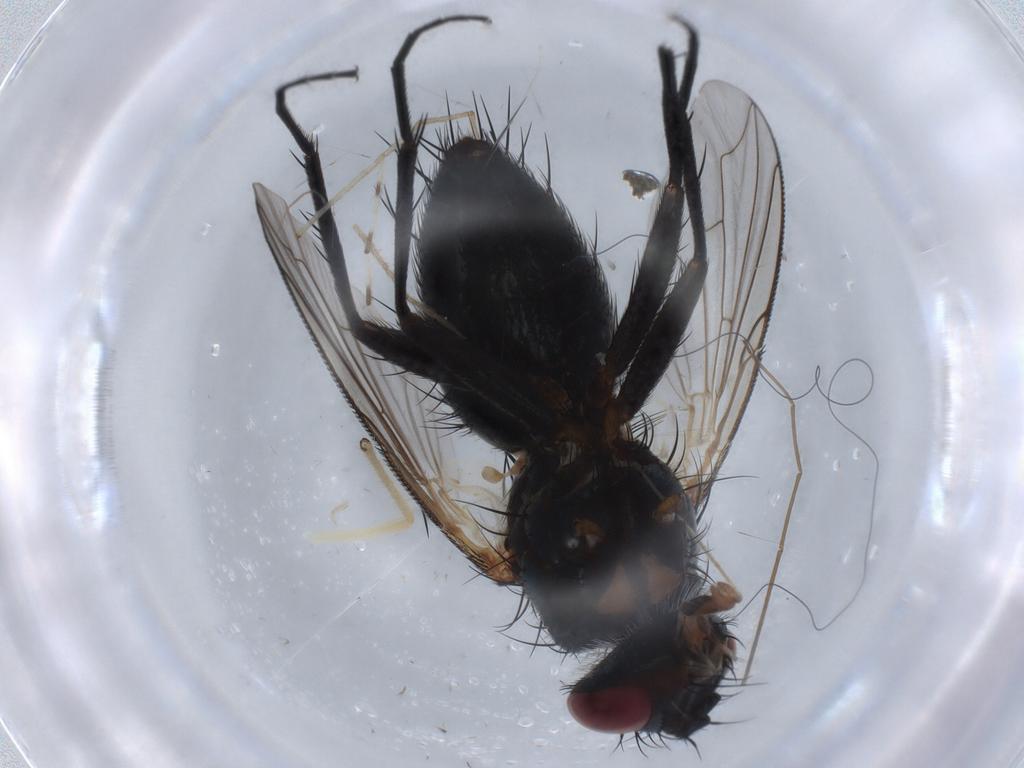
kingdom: Animalia
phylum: Arthropoda
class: Insecta
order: Diptera
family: Tachinidae
